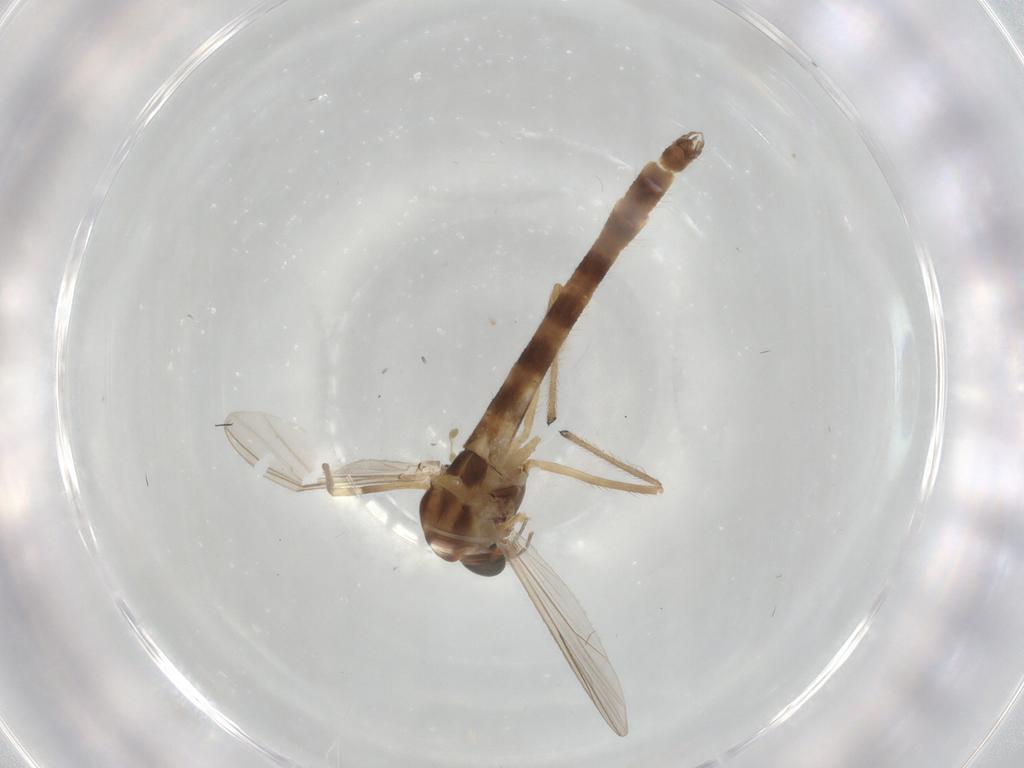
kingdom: Animalia
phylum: Arthropoda
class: Insecta
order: Diptera
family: Chironomidae
